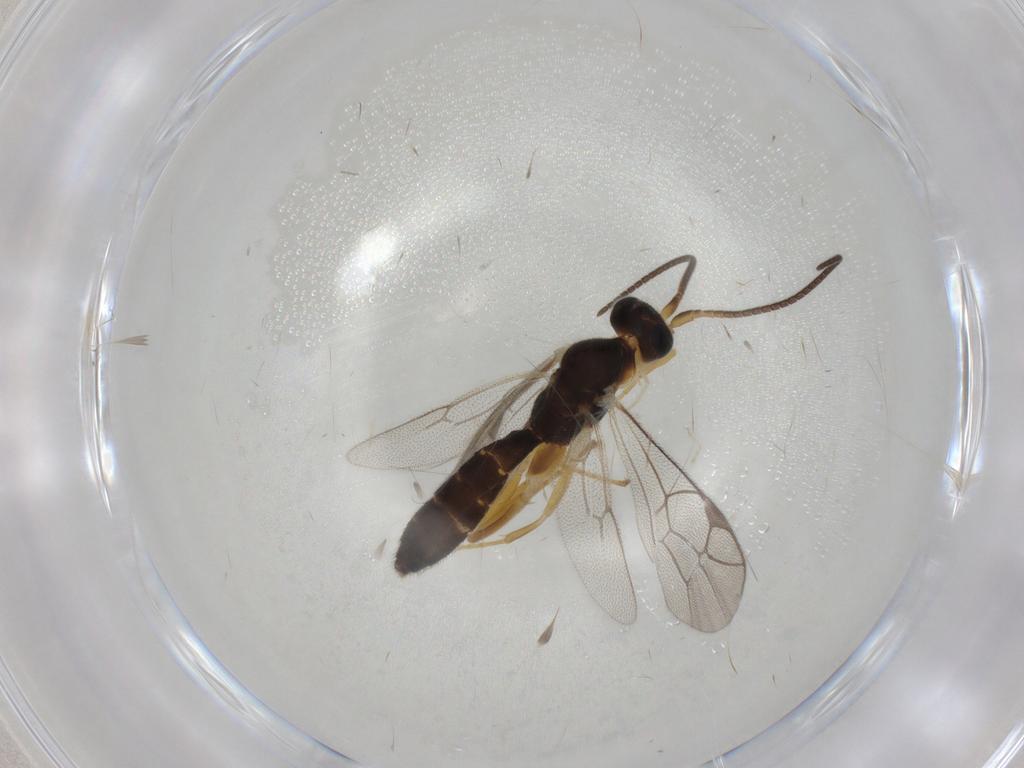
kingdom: Animalia
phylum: Arthropoda
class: Insecta
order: Hymenoptera
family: Ichneumonidae
